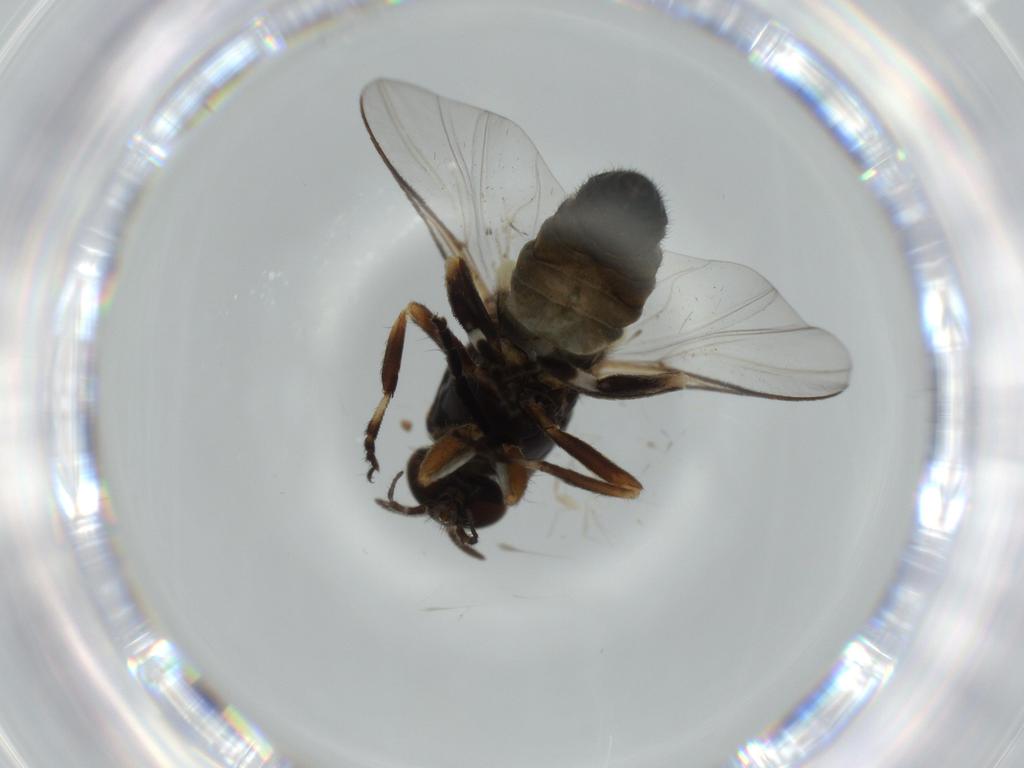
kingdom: Animalia
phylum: Arthropoda
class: Insecta
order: Diptera
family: Dolichopodidae
